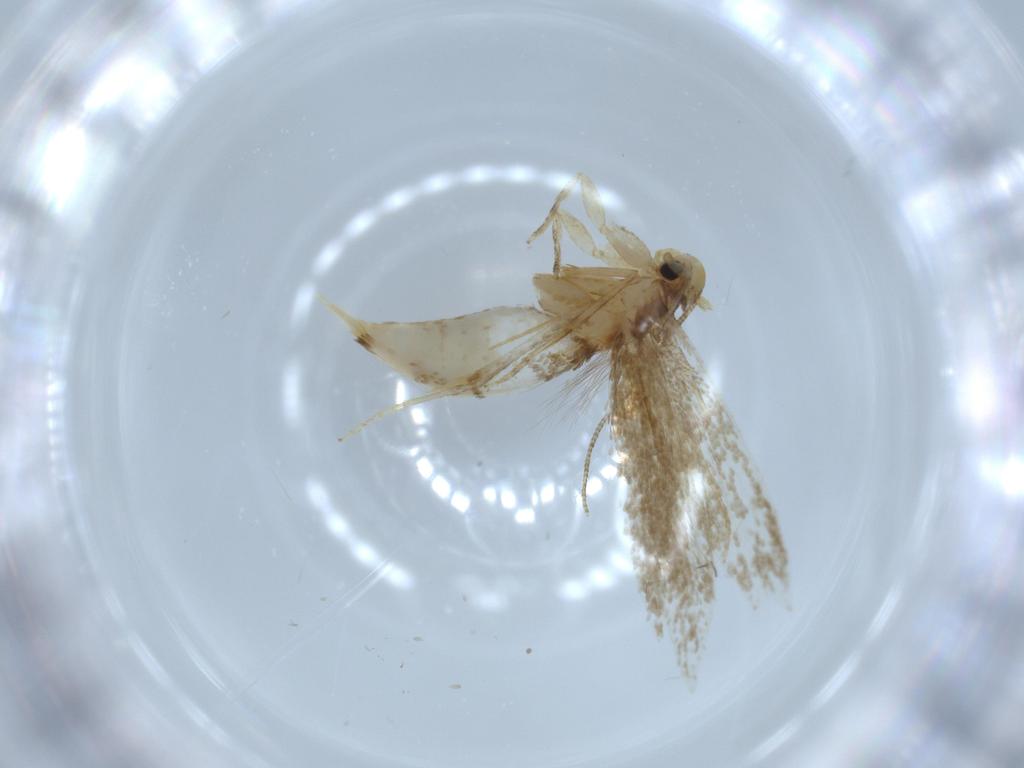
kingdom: Animalia
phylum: Arthropoda
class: Insecta
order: Lepidoptera
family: Tineidae
